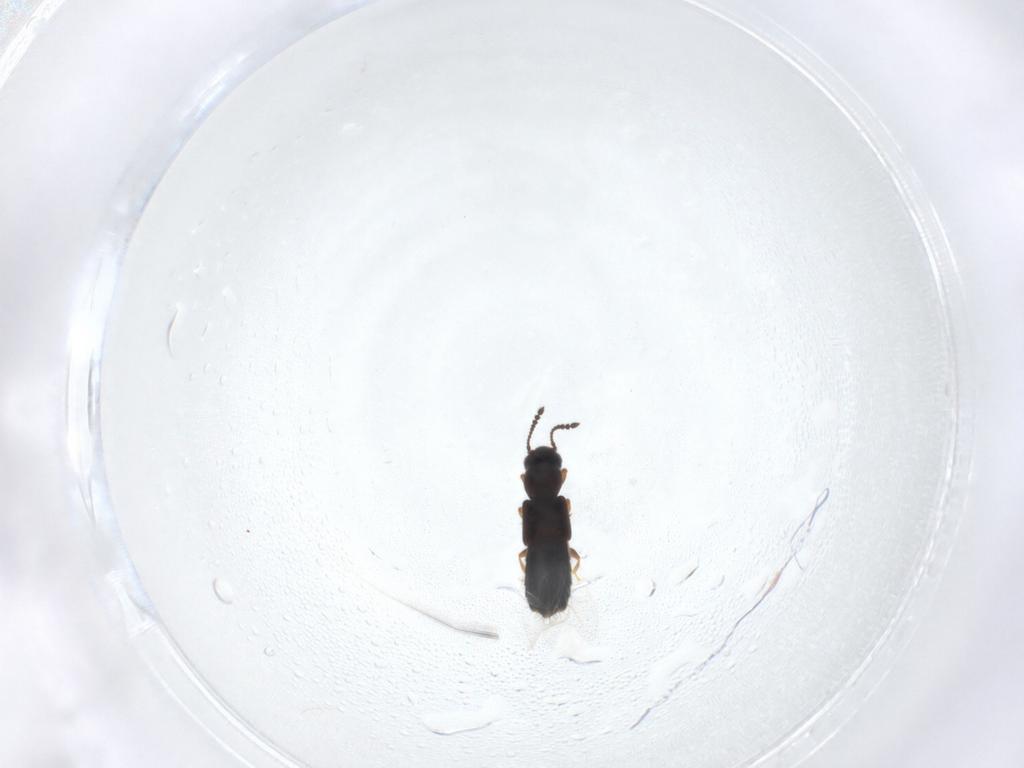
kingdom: Animalia
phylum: Arthropoda
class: Insecta
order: Coleoptera
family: Staphylinidae
